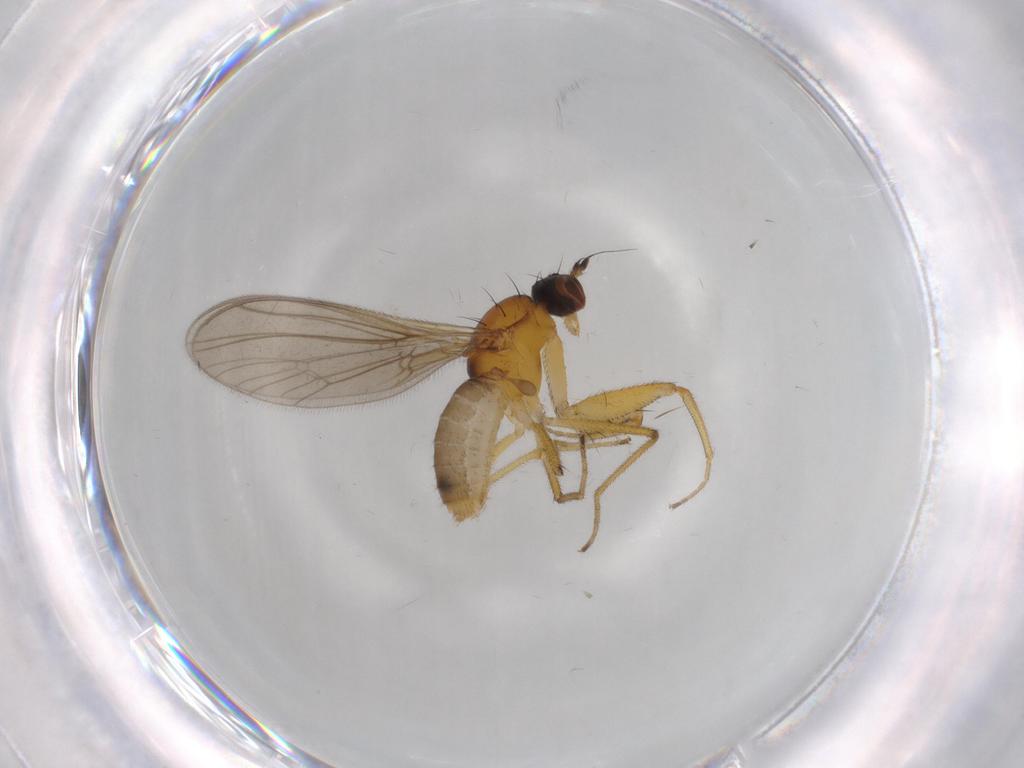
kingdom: Animalia
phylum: Arthropoda
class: Insecta
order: Diptera
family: Empididae
